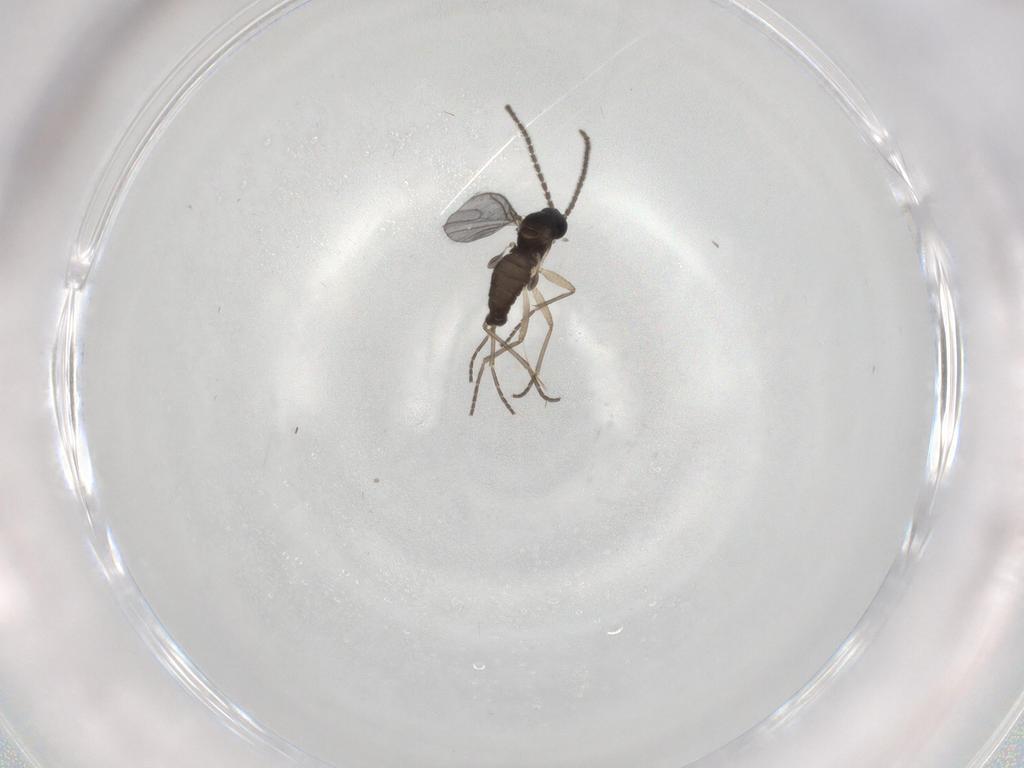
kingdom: Animalia
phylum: Arthropoda
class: Insecta
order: Diptera
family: Sciaridae
